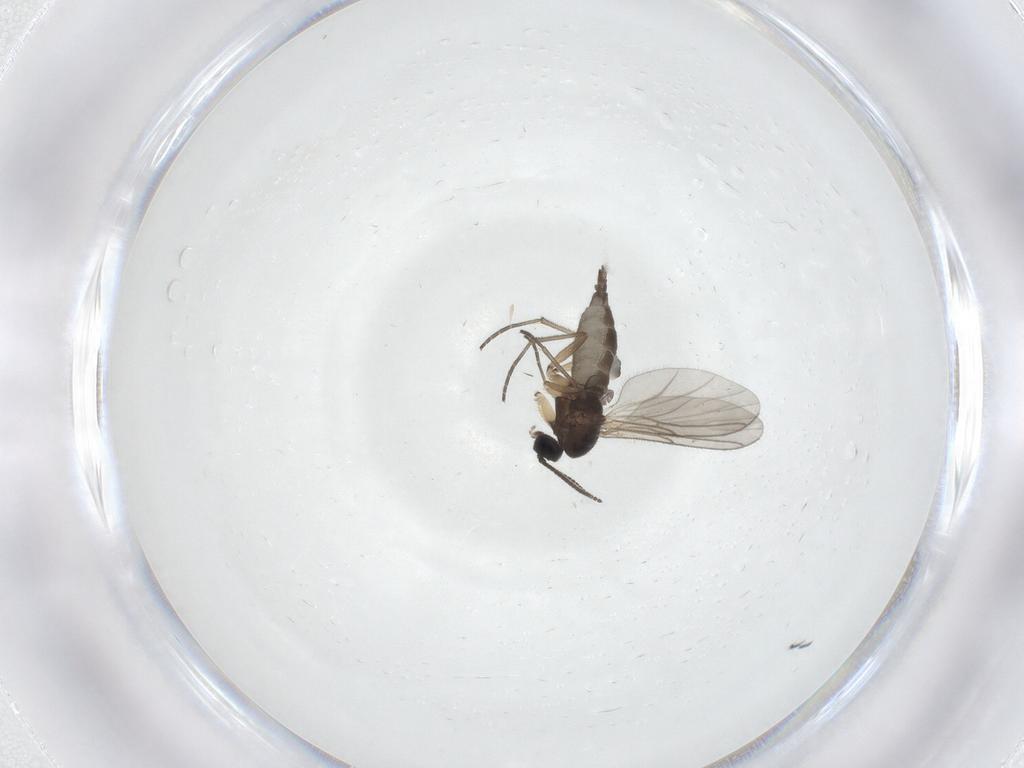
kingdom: Animalia
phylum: Arthropoda
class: Insecta
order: Diptera
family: Sciaridae
